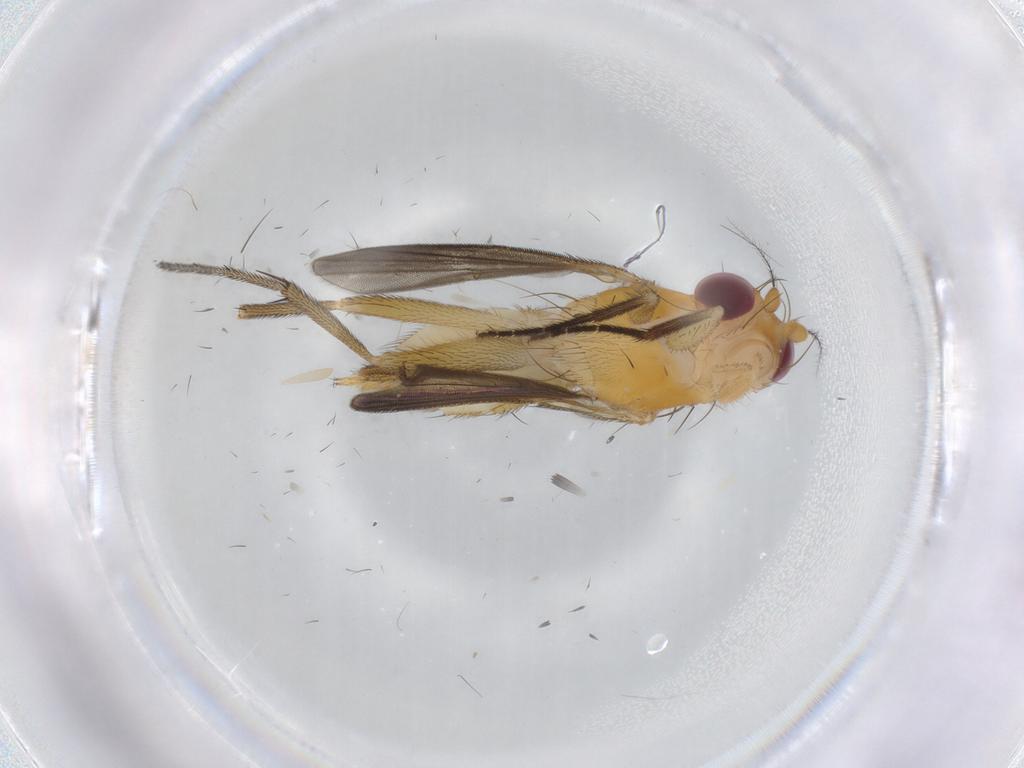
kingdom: Animalia
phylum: Arthropoda
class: Insecta
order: Diptera
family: Clusiidae
